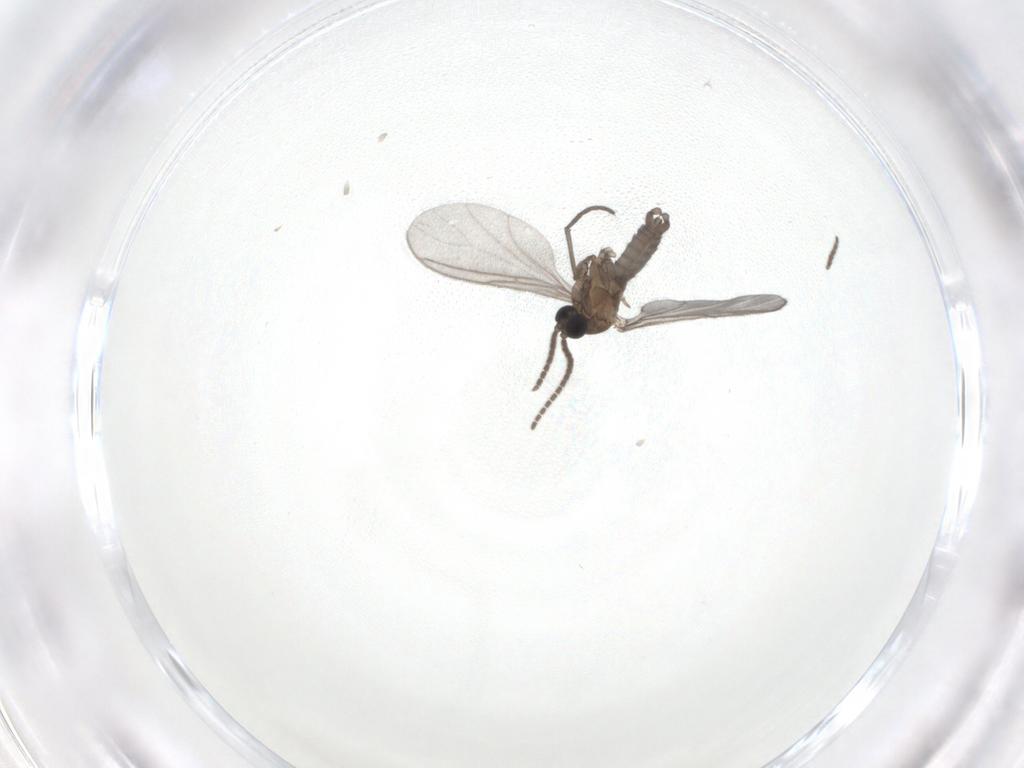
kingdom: Animalia
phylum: Arthropoda
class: Insecta
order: Diptera
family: Sciaridae
